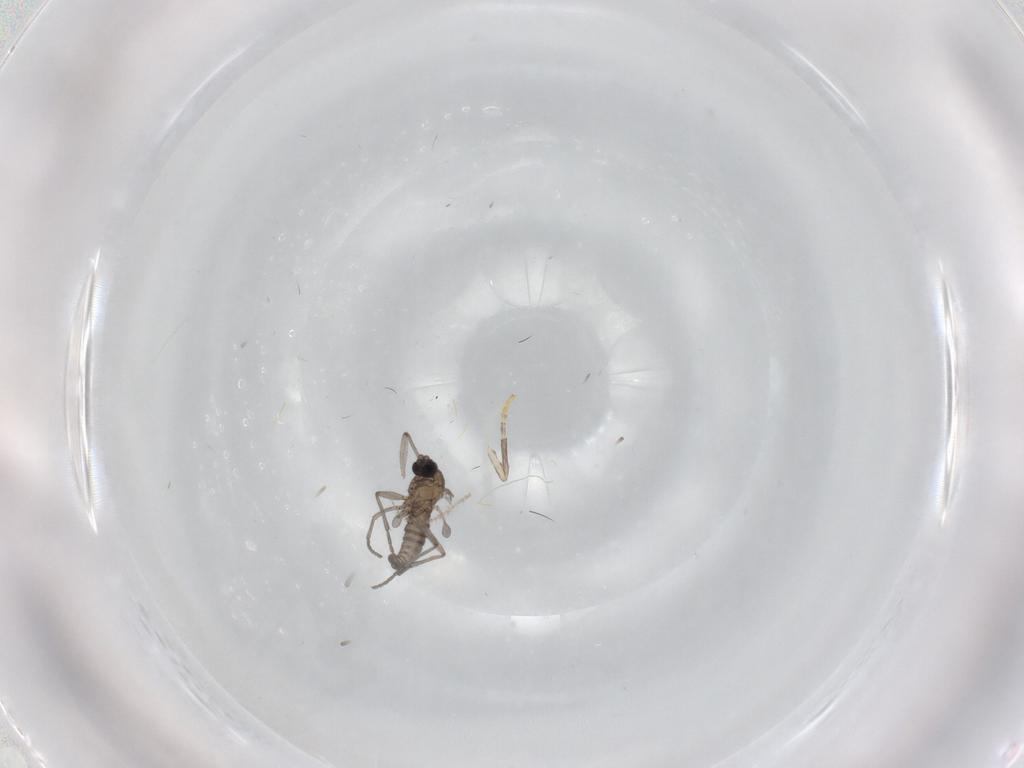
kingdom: Animalia
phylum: Arthropoda
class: Insecta
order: Diptera
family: Sciaridae
